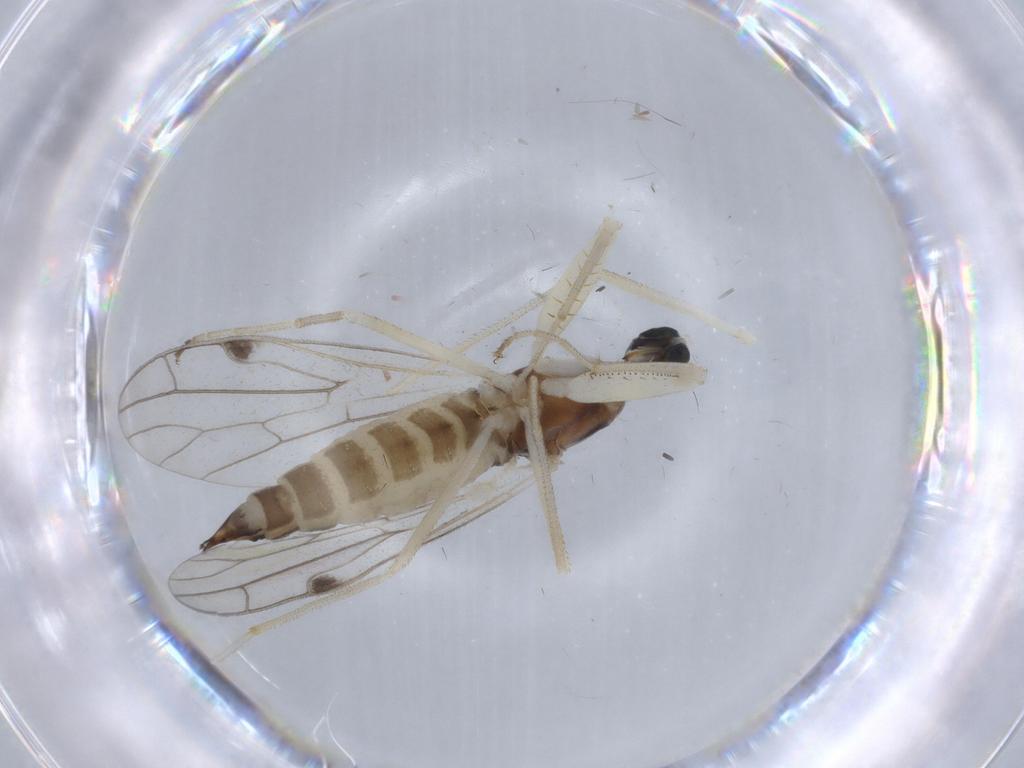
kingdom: Animalia
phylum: Arthropoda
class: Insecta
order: Diptera
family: Empididae
